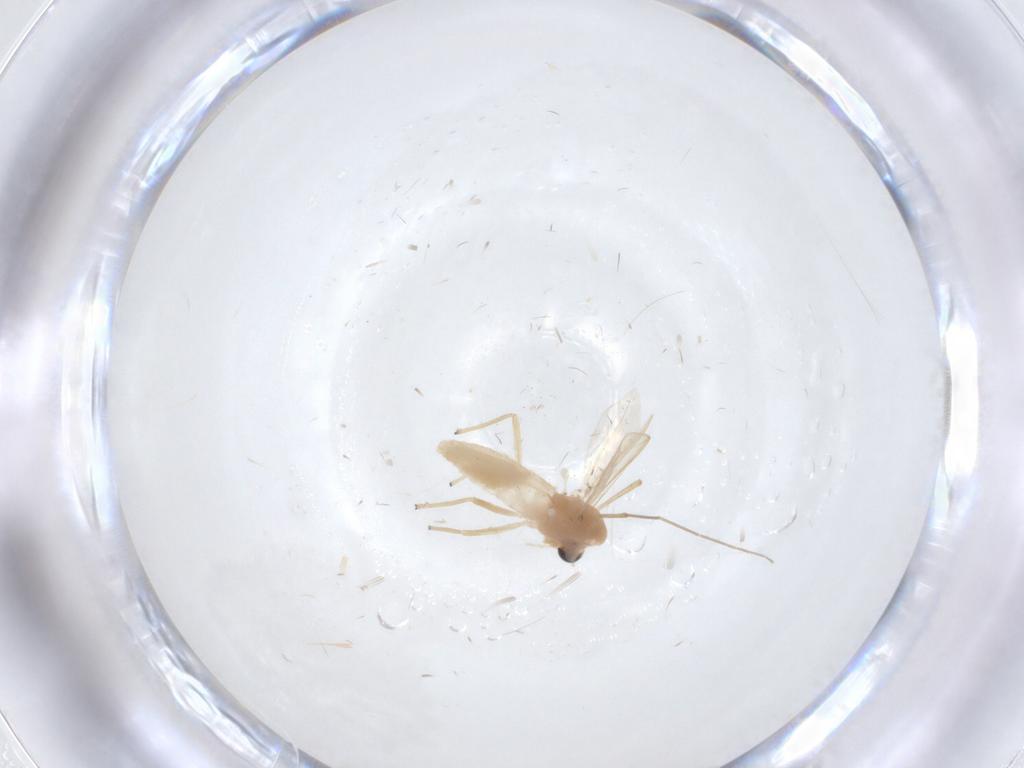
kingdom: Animalia
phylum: Arthropoda
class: Insecta
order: Diptera
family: Chironomidae
